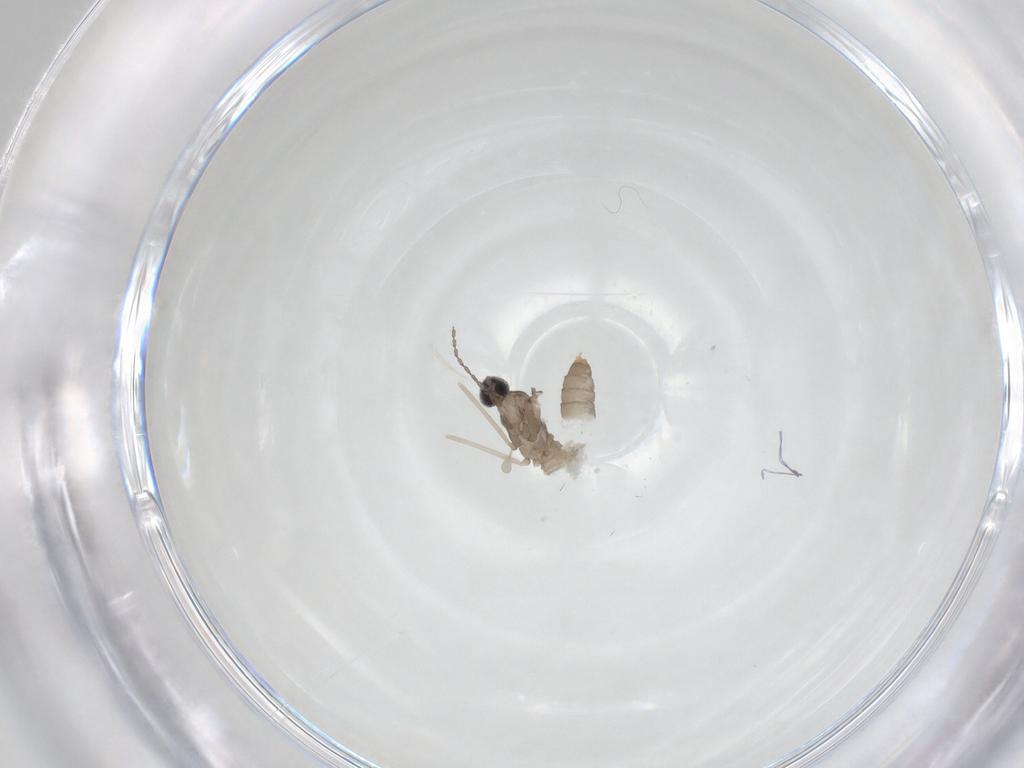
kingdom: Animalia
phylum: Arthropoda
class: Insecta
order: Diptera
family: Cecidomyiidae
